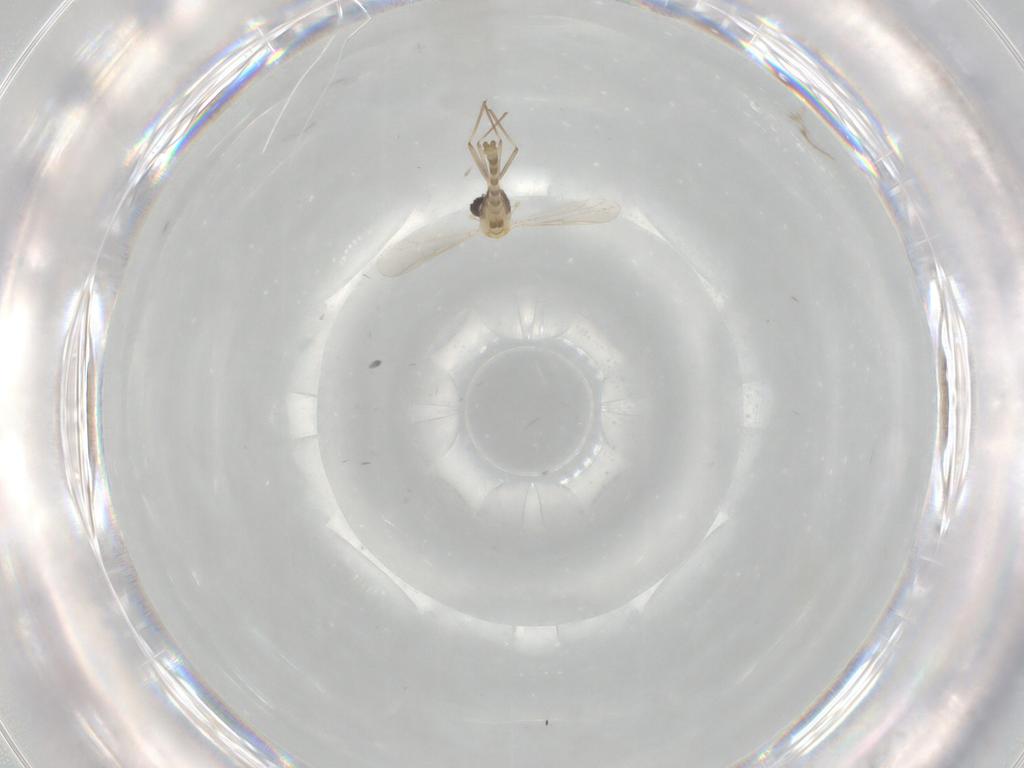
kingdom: Animalia
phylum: Arthropoda
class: Insecta
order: Diptera
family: Chironomidae
